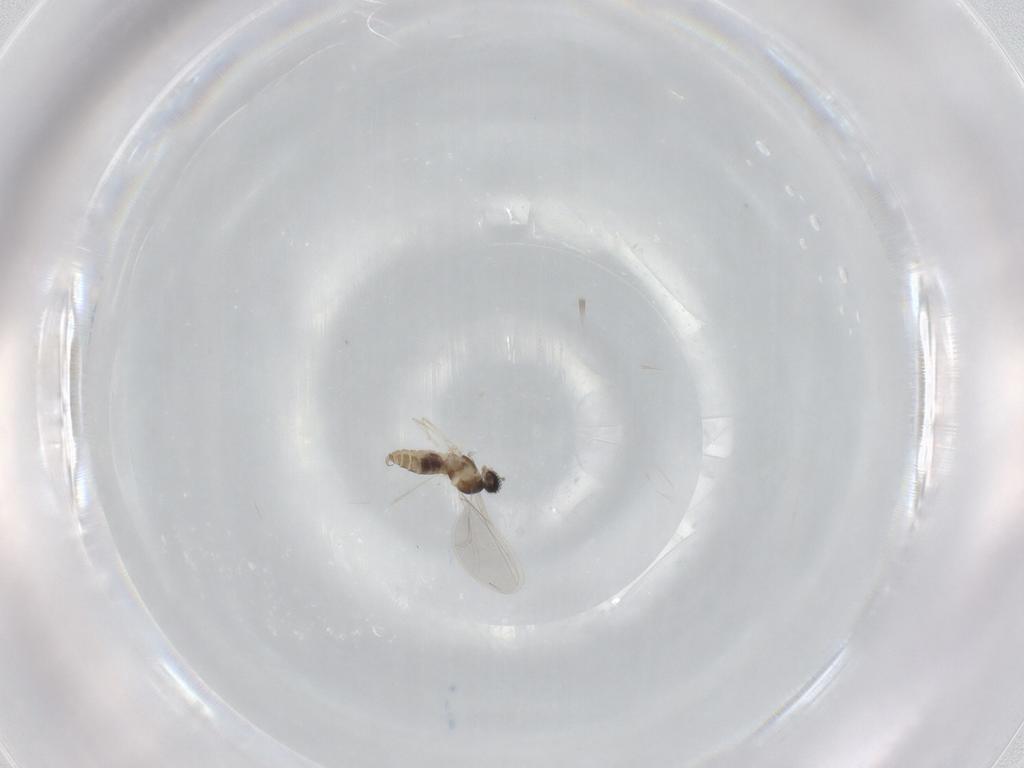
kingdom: Animalia
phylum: Arthropoda
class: Insecta
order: Diptera
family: Cecidomyiidae
